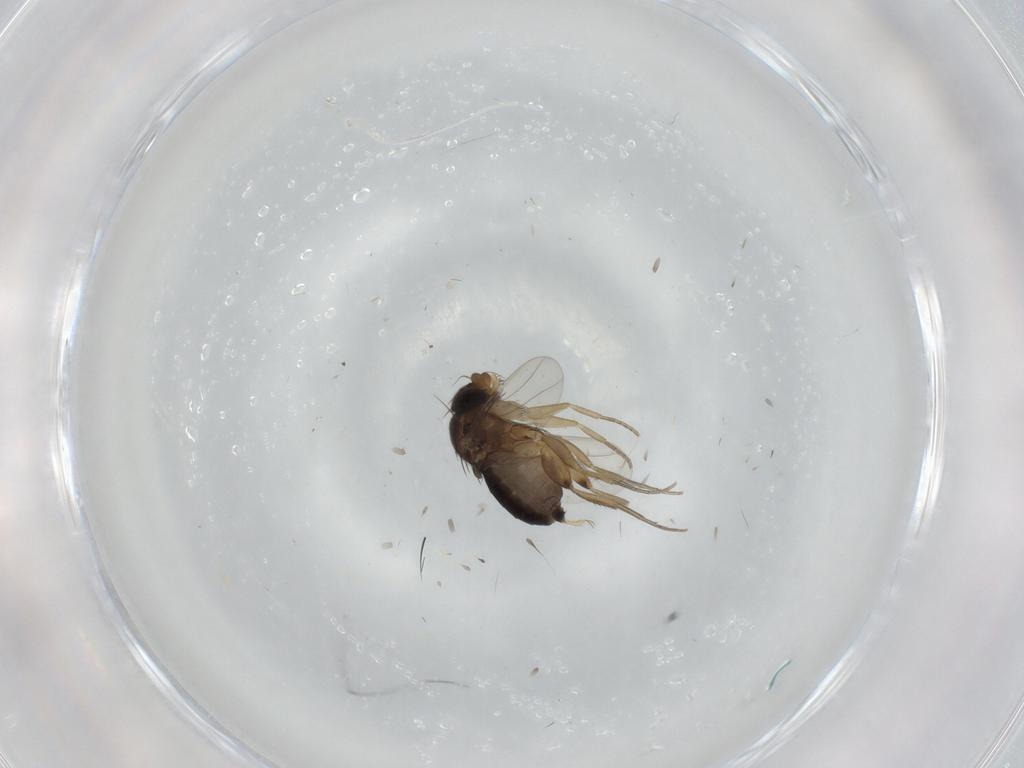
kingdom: Animalia
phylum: Arthropoda
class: Insecta
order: Diptera
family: Phoridae
